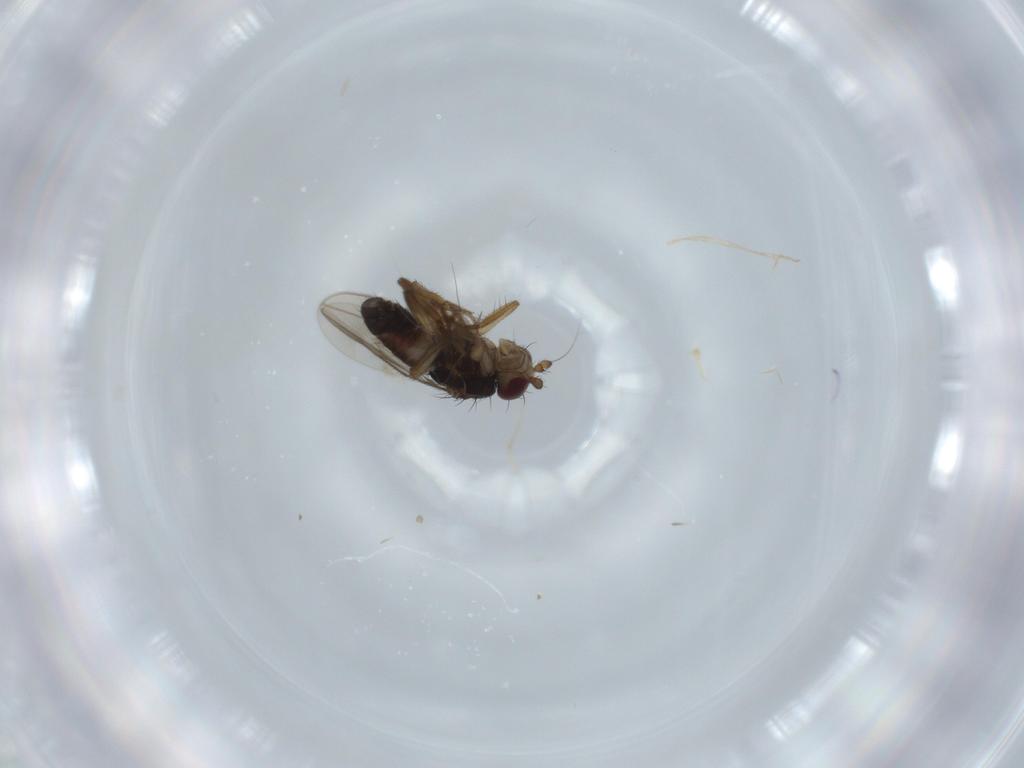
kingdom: Animalia
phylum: Arthropoda
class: Insecta
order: Diptera
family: Sphaeroceridae
